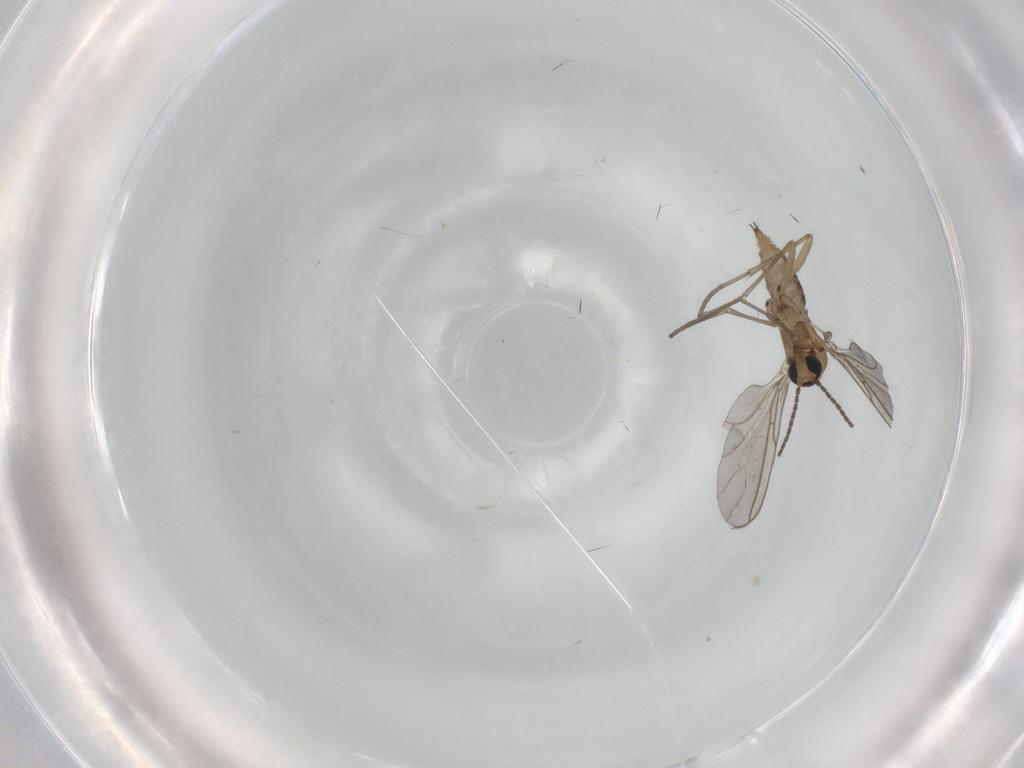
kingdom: Animalia
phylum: Arthropoda
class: Insecta
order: Diptera
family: Sciaridae
